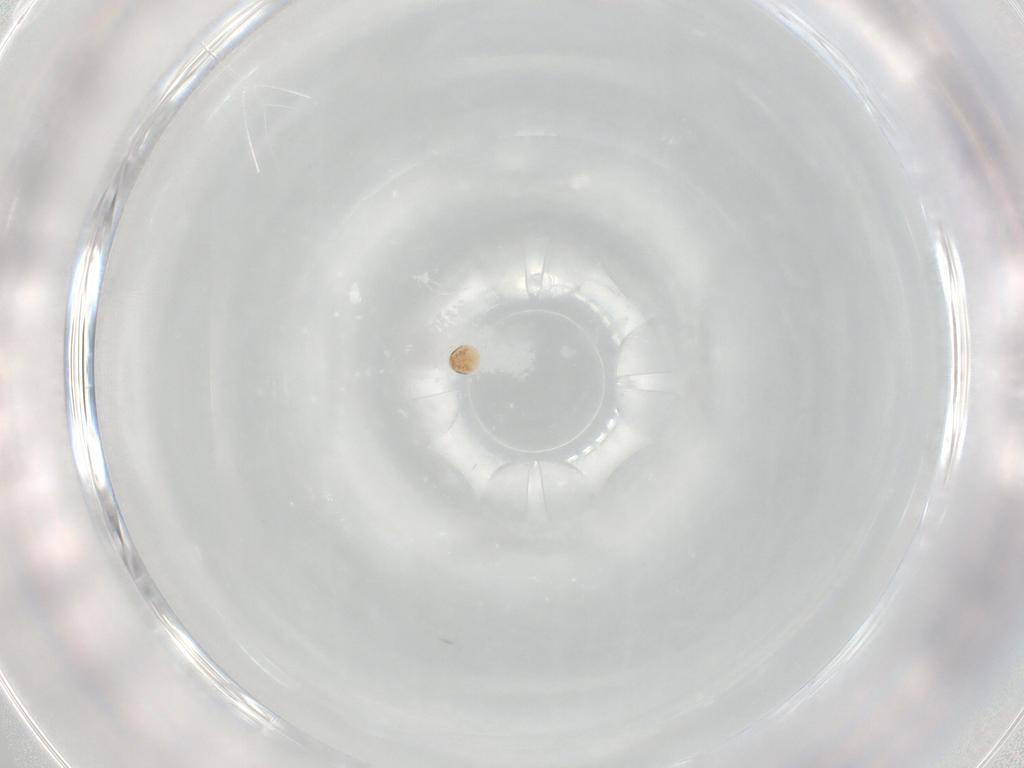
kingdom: Animalia
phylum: Arthropoda
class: Arachnida
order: Trombidiformes
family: Scutacaridae
